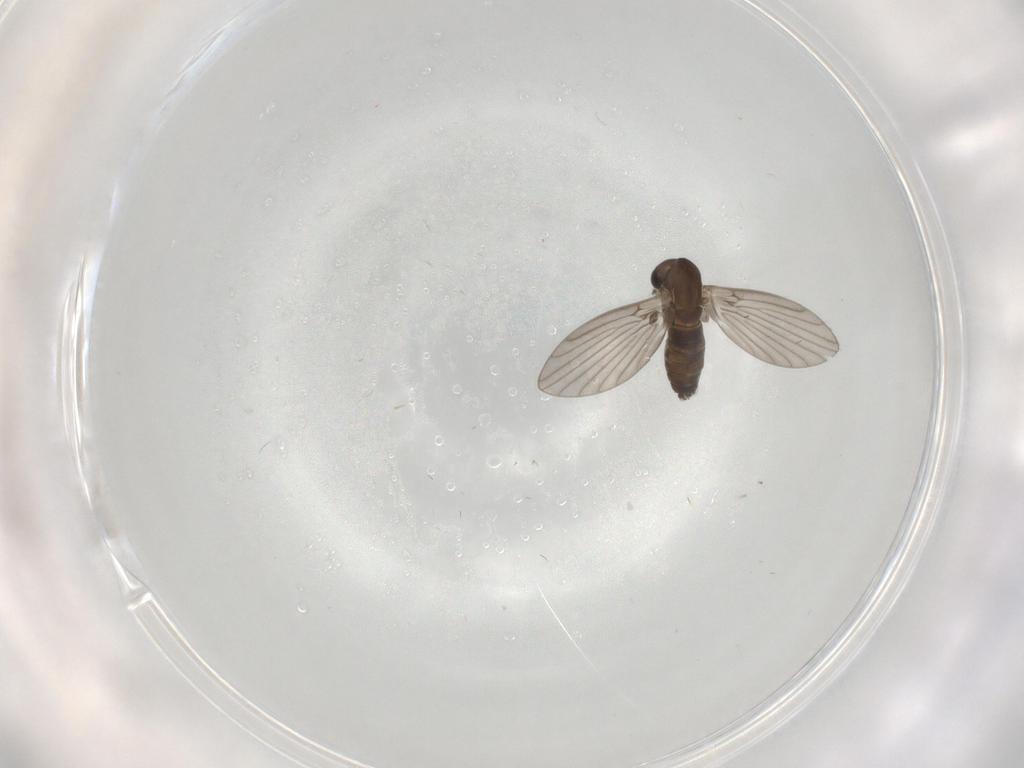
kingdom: Animalia
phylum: Arthropoda
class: Insecta
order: Diptera
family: Chloropidae
